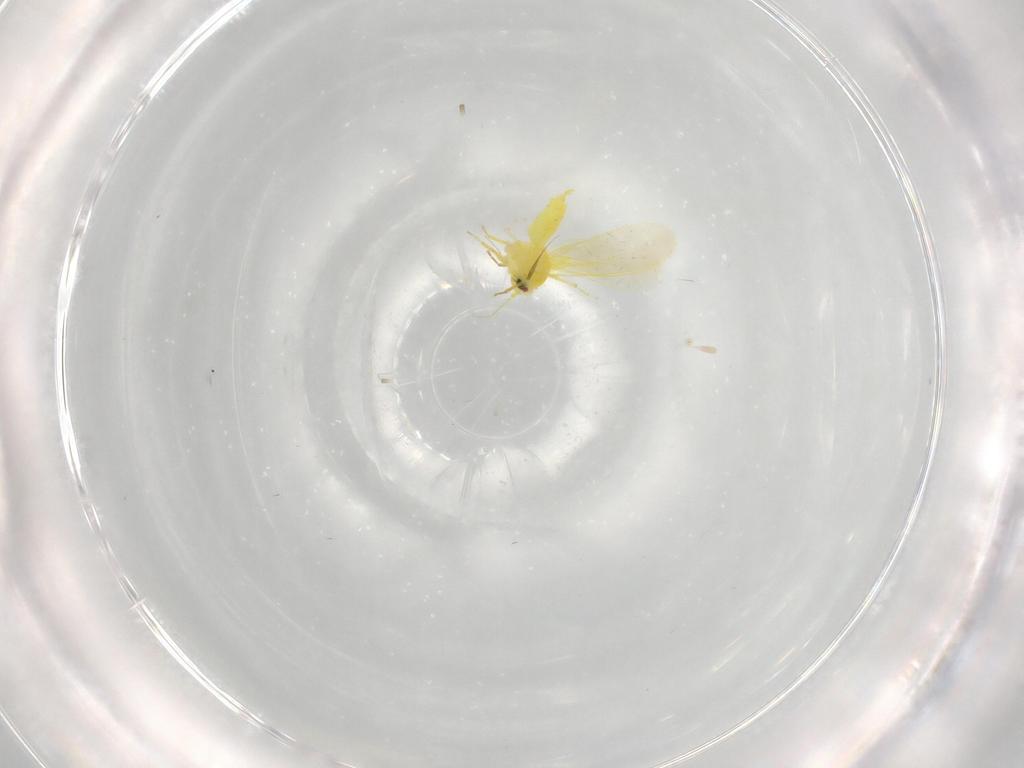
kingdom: Animalia
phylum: Arthropoda
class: Insecta
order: Hemiptera
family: Aleyrodidae
